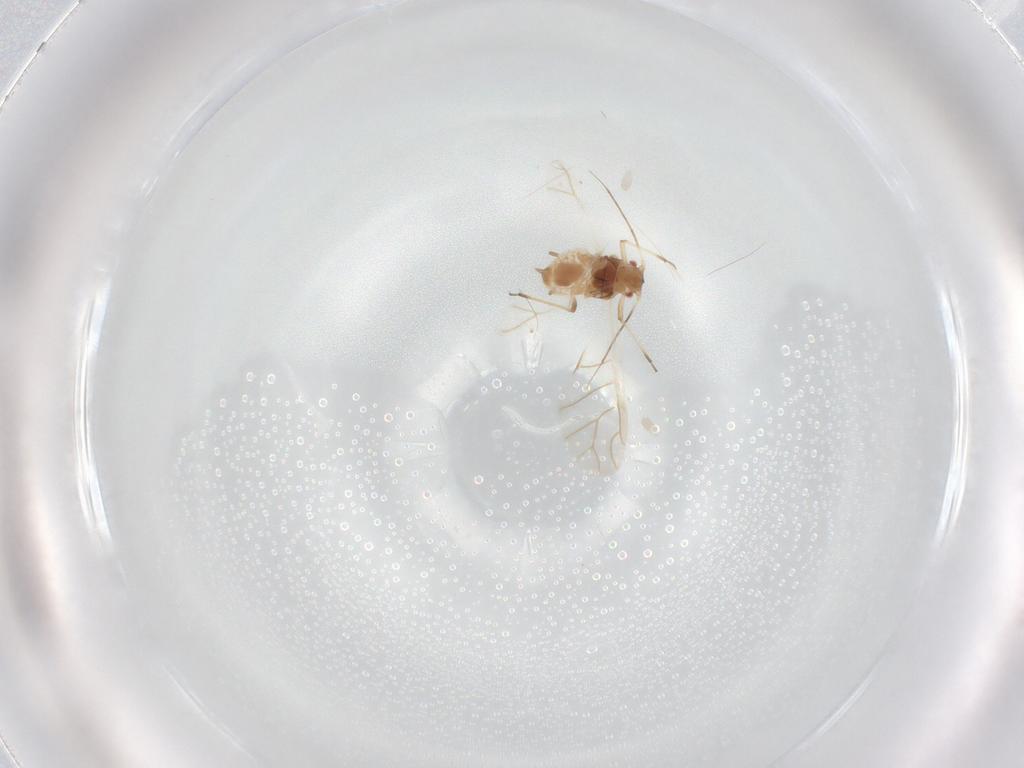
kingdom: Animalia
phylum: Arthropoda
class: Insecta
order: Hemiptera
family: Aphididae
